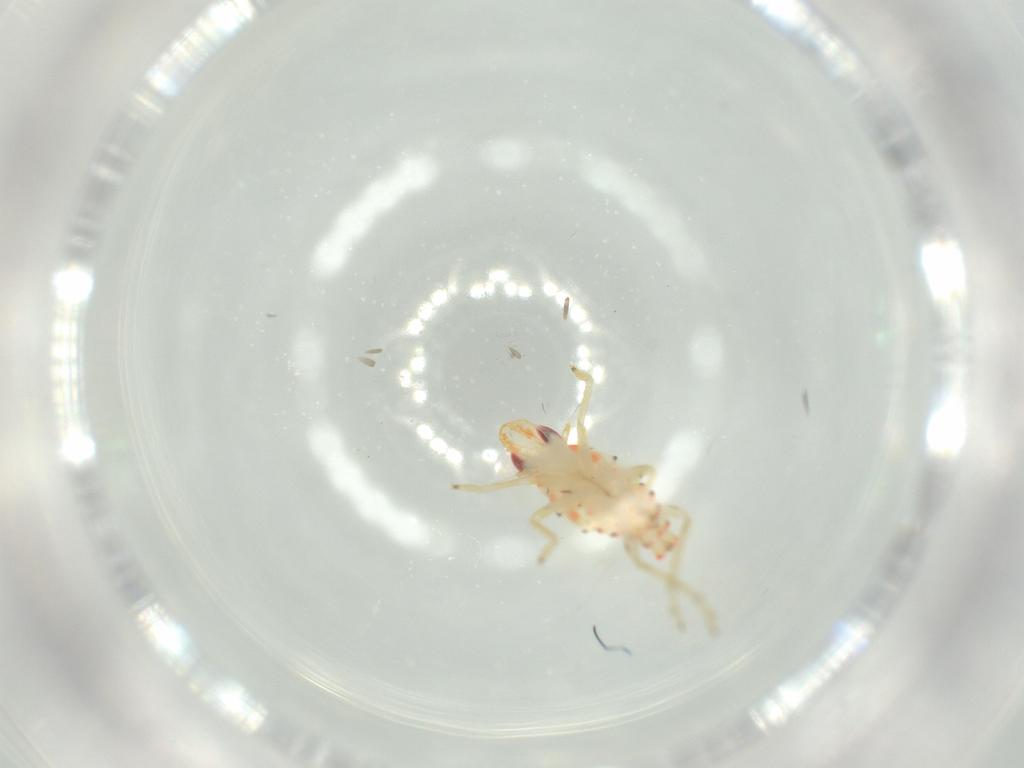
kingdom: Animalia
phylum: Arthropoda
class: Insecta
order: Hemiptera
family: Tropiduchidae
